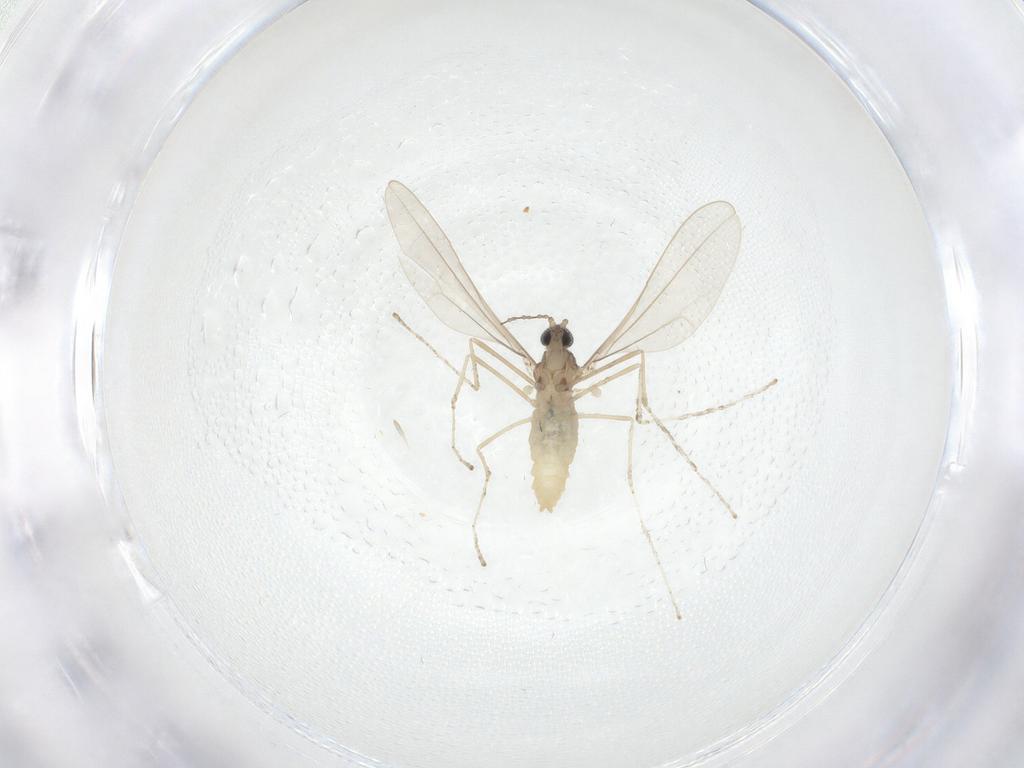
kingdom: Animalia
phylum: Arthropoda
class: Insecta
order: Diptera
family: Cecidomyiidae
